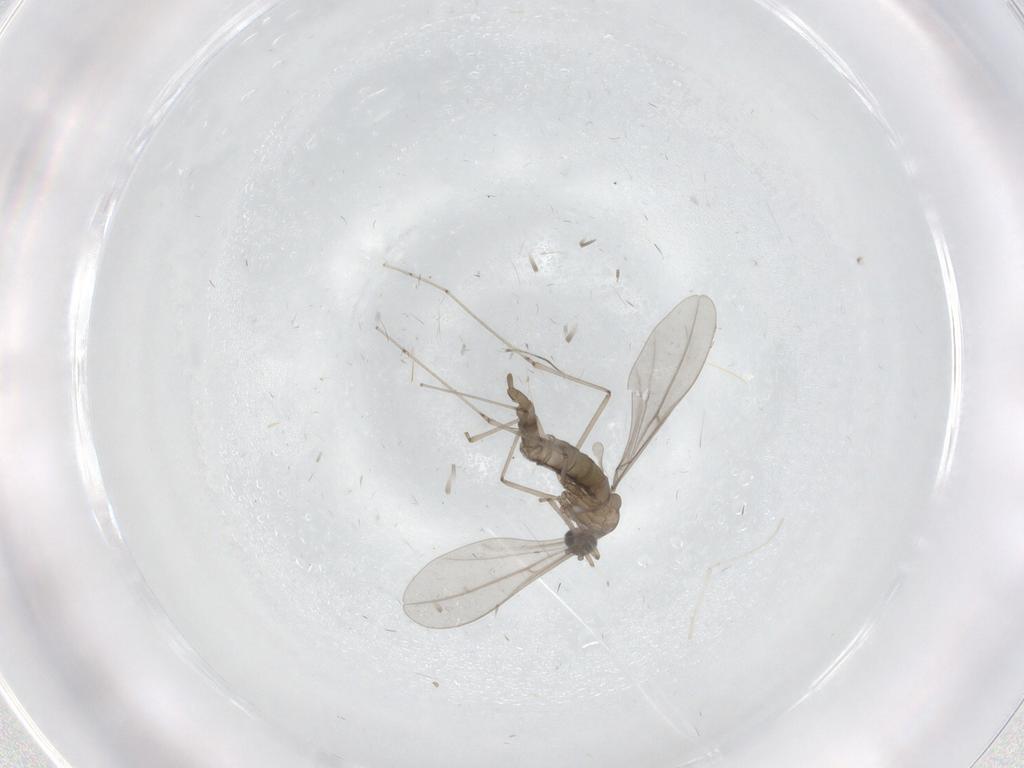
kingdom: Animalia
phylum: Arthropoda
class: Insecta
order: Diptera
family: Cecidomyiidae
